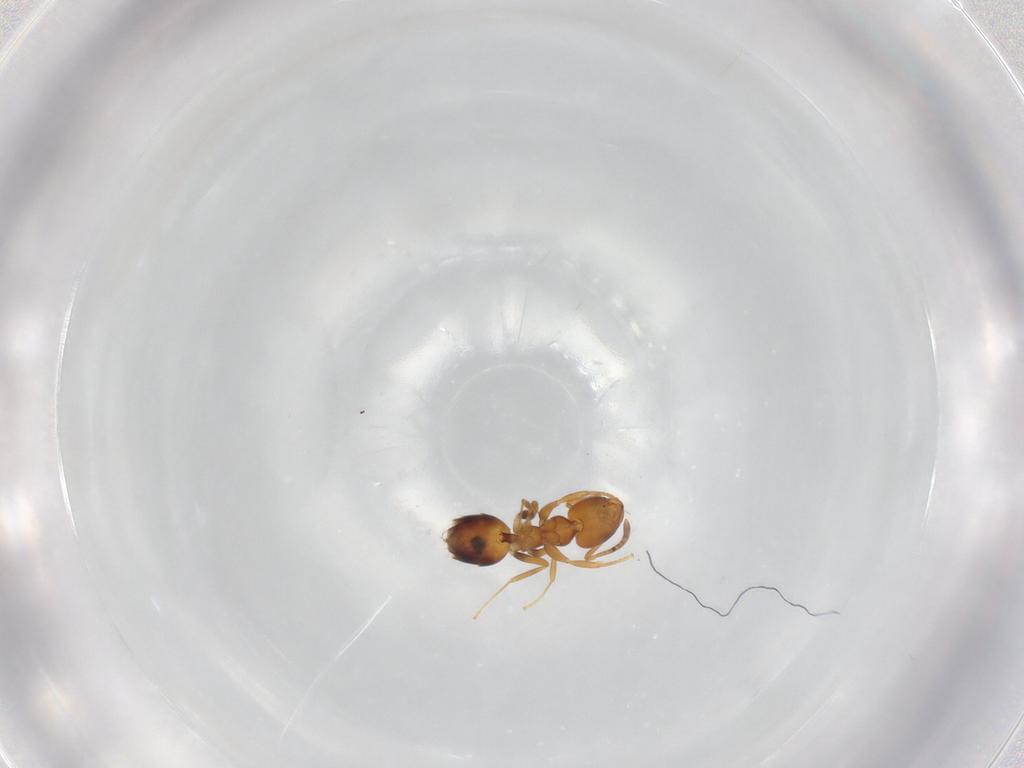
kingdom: Animalia
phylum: Arthropoda
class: Insecta
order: Hymenoptera
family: Formicidae
